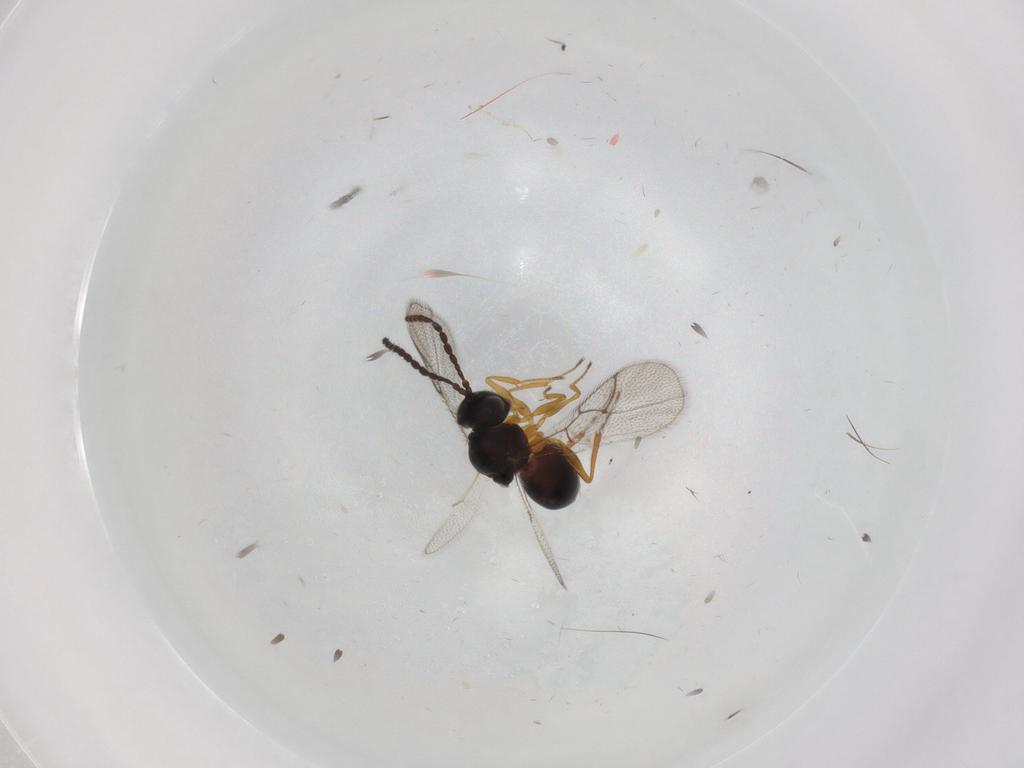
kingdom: Animalia
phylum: Arthropoda
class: Insecta
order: Hymenoptera
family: Figitidae
